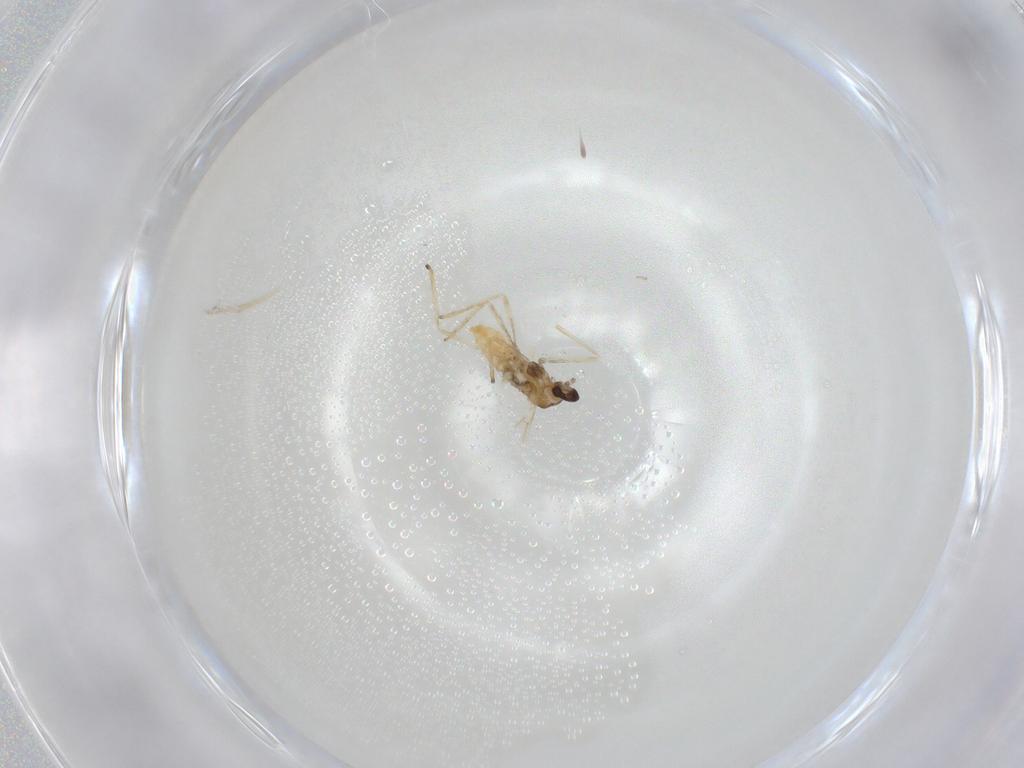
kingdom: Animalia
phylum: Arthropoda
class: Insecta
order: Diptera
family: Cecidomyiidae
